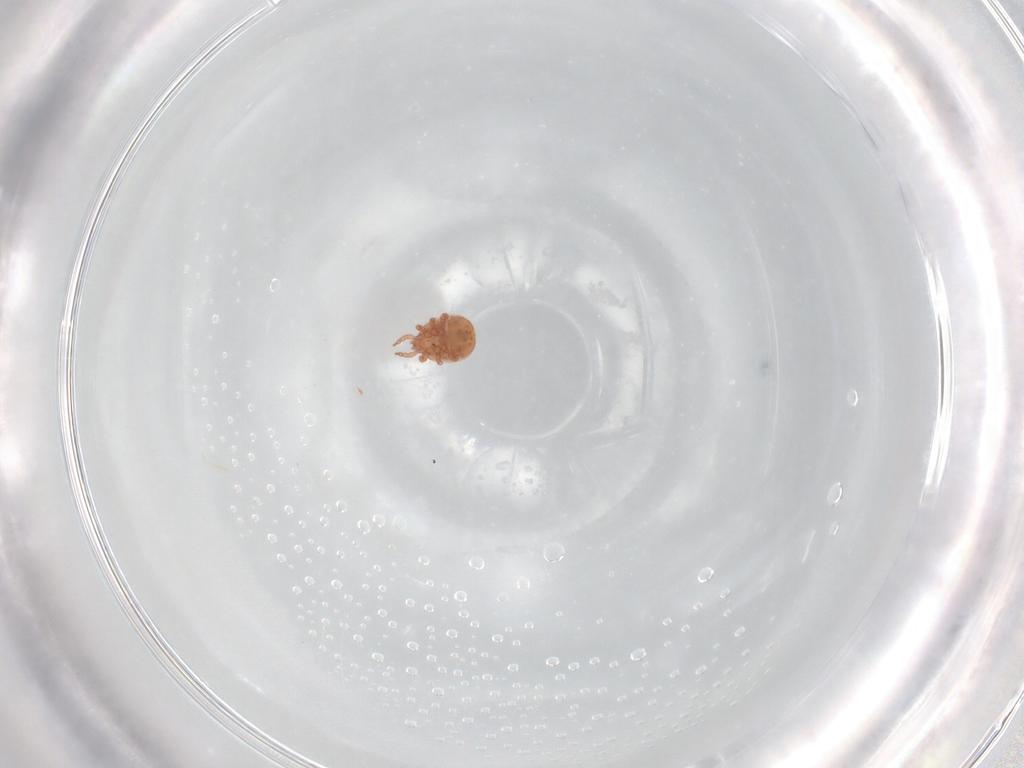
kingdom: Animalia
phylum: Arthropoda
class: Arachnida
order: Mesostigmata
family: Zerconidae
